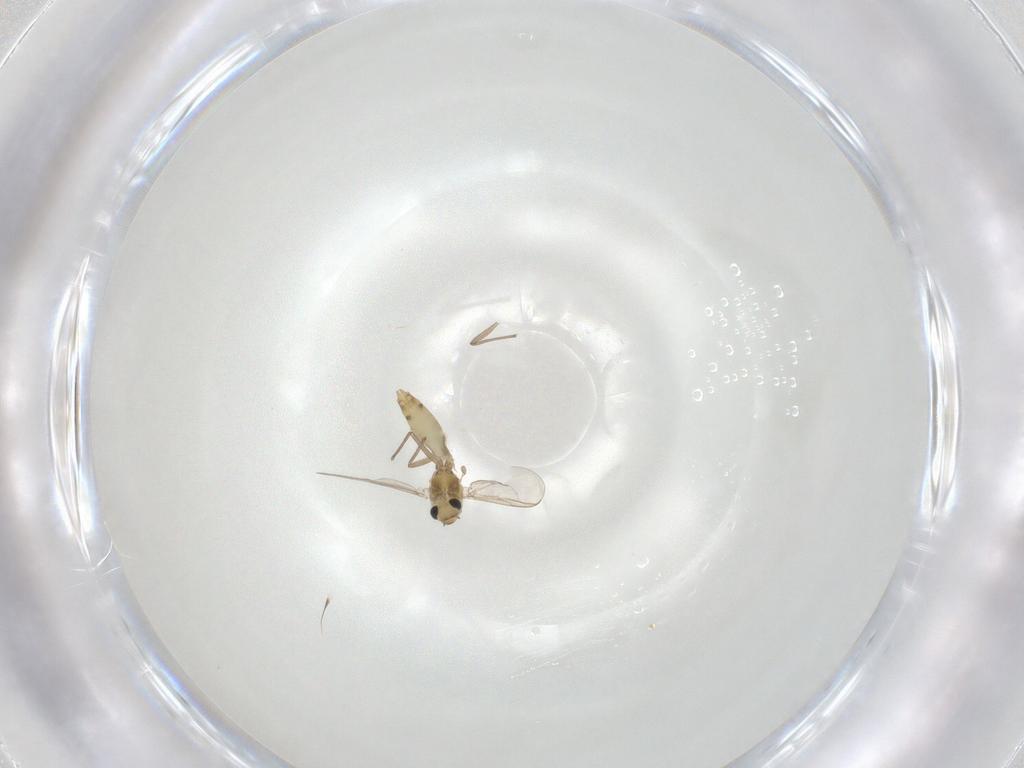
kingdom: Animalia
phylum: Arthropoda
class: Insecta
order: Diptera
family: Chironomidae
